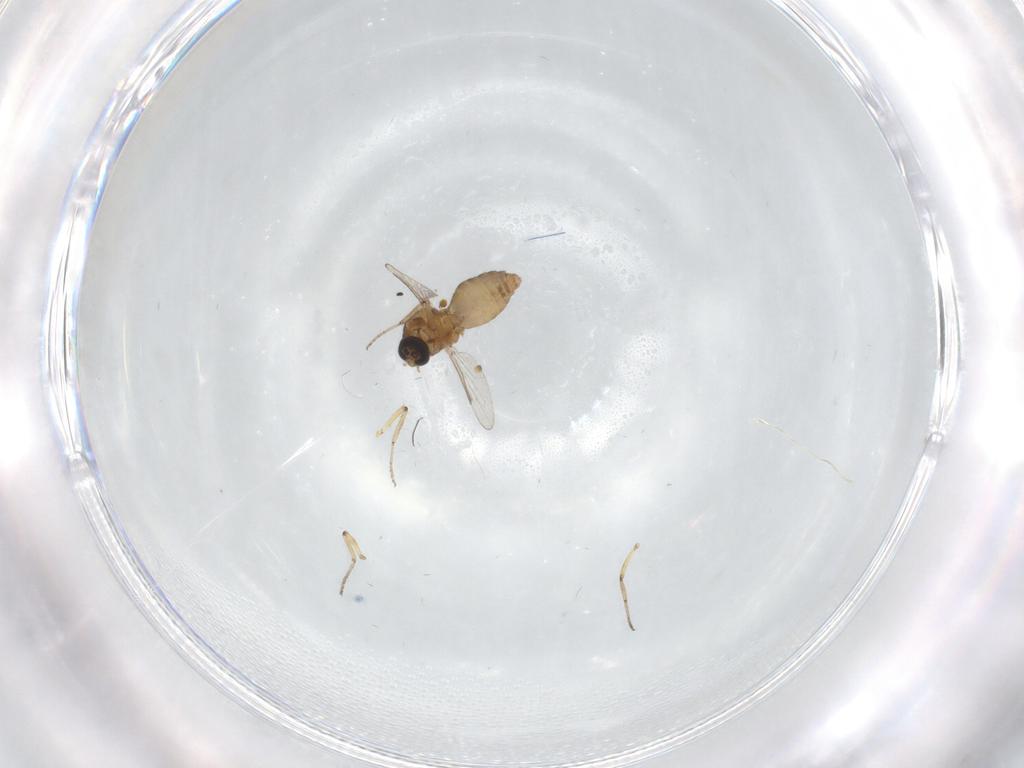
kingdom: Animalia
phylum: Arthropoda
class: Insecta
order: Diptera
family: Ceratopogonidae
